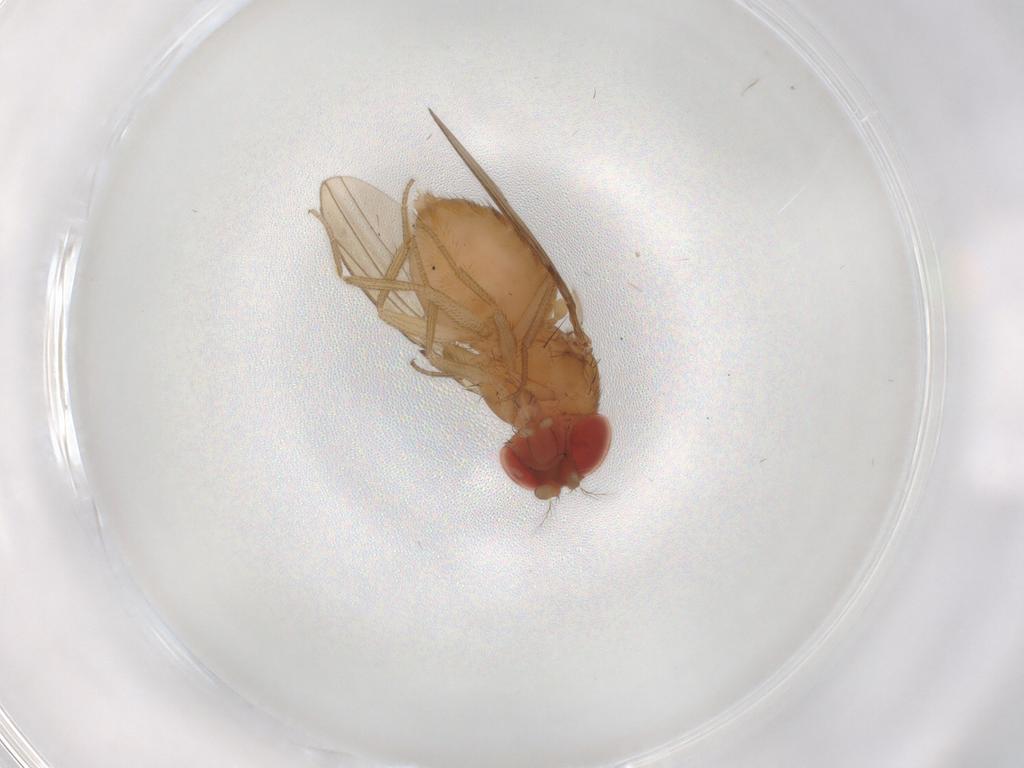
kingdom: Animalia
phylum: Arthropoda
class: Insecta
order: Diptera
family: Drosophilidae
